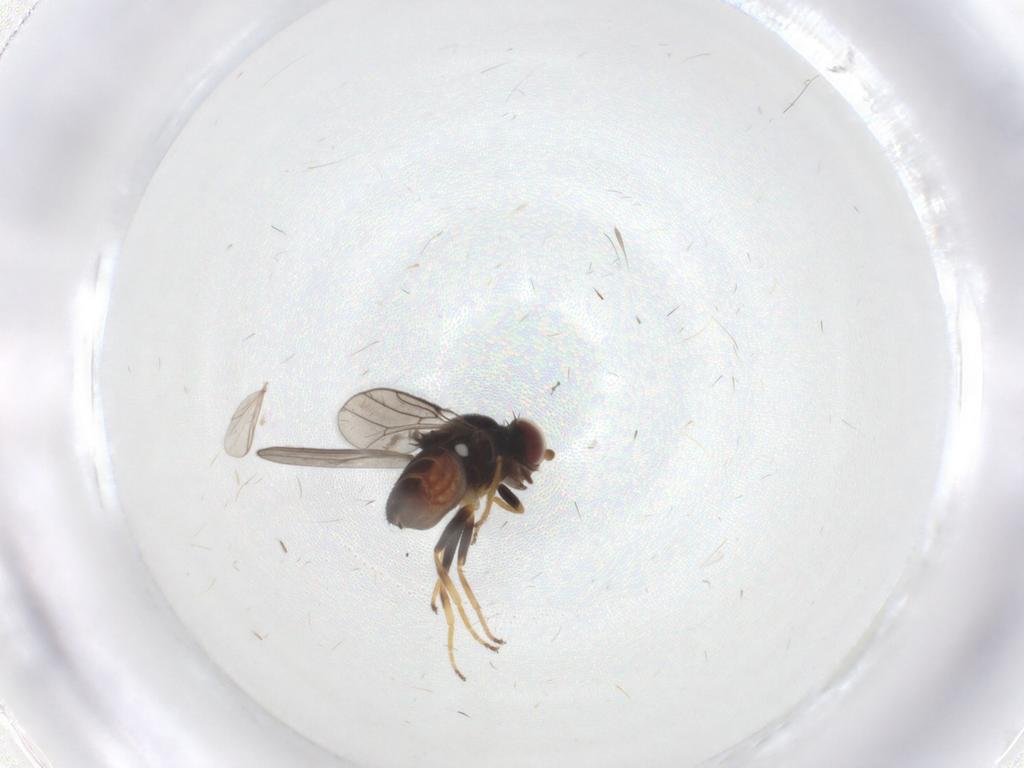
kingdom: Animalia
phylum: Arthropoda
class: Insecta
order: Diptera
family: Chloropidae
